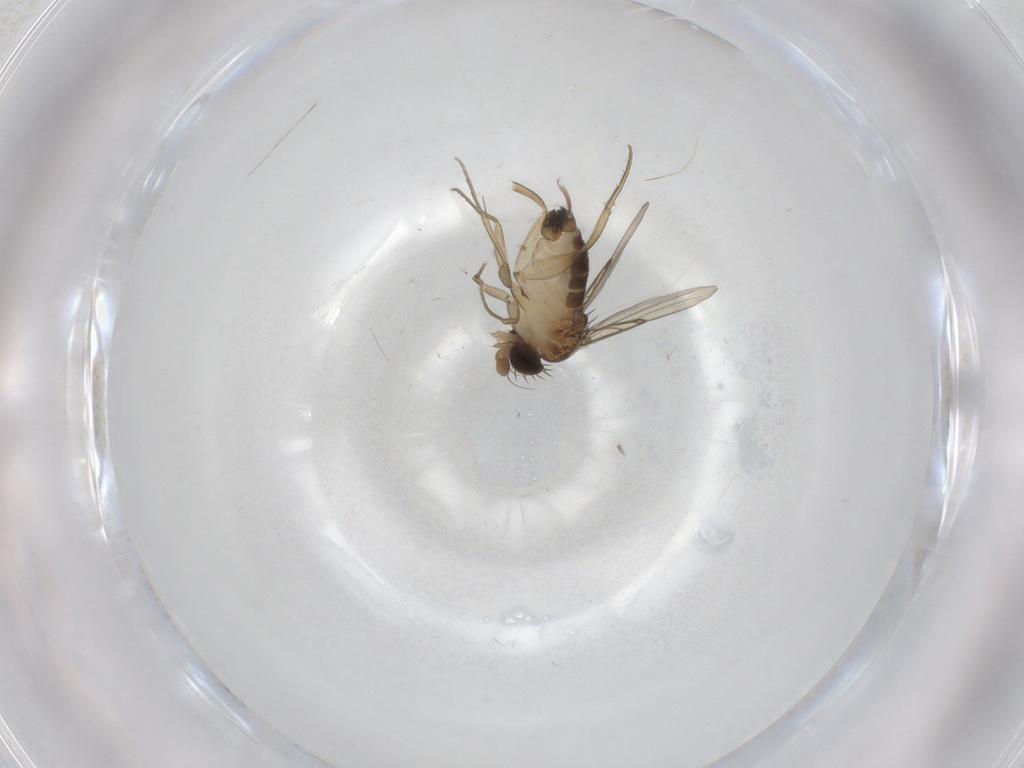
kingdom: Animalia
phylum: Arthropoda
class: Insecta
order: Diptera
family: Phoridae
